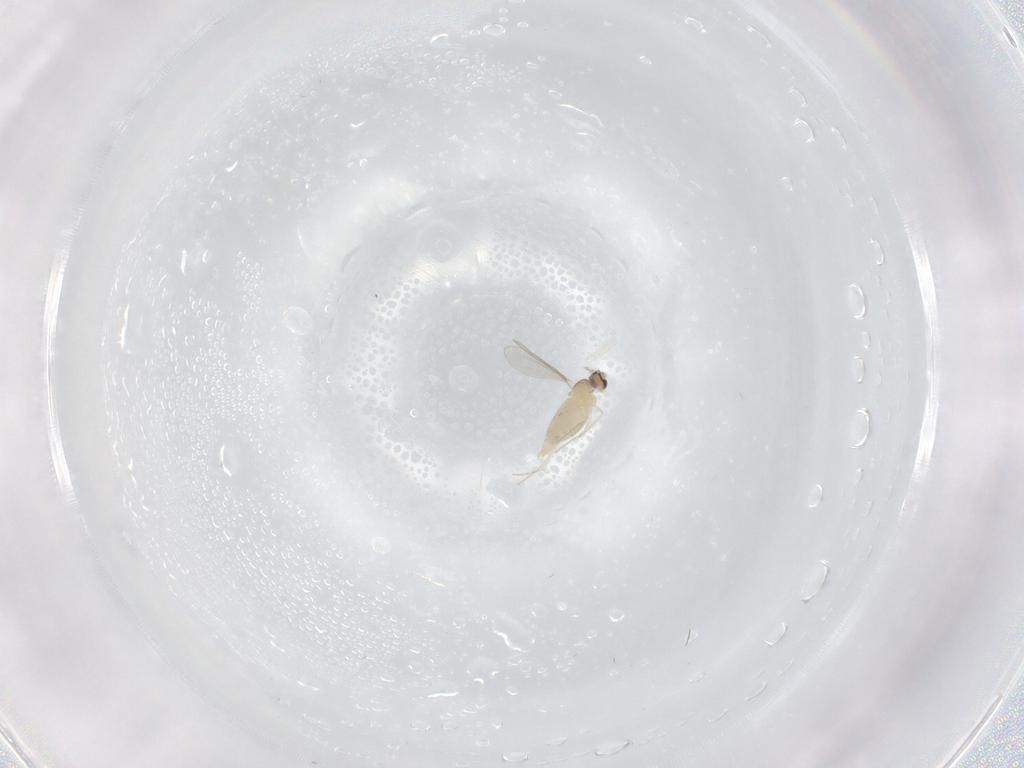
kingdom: Animalia
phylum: Arthropoda
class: Insecta
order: Diptera
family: Cecidomyiidae
